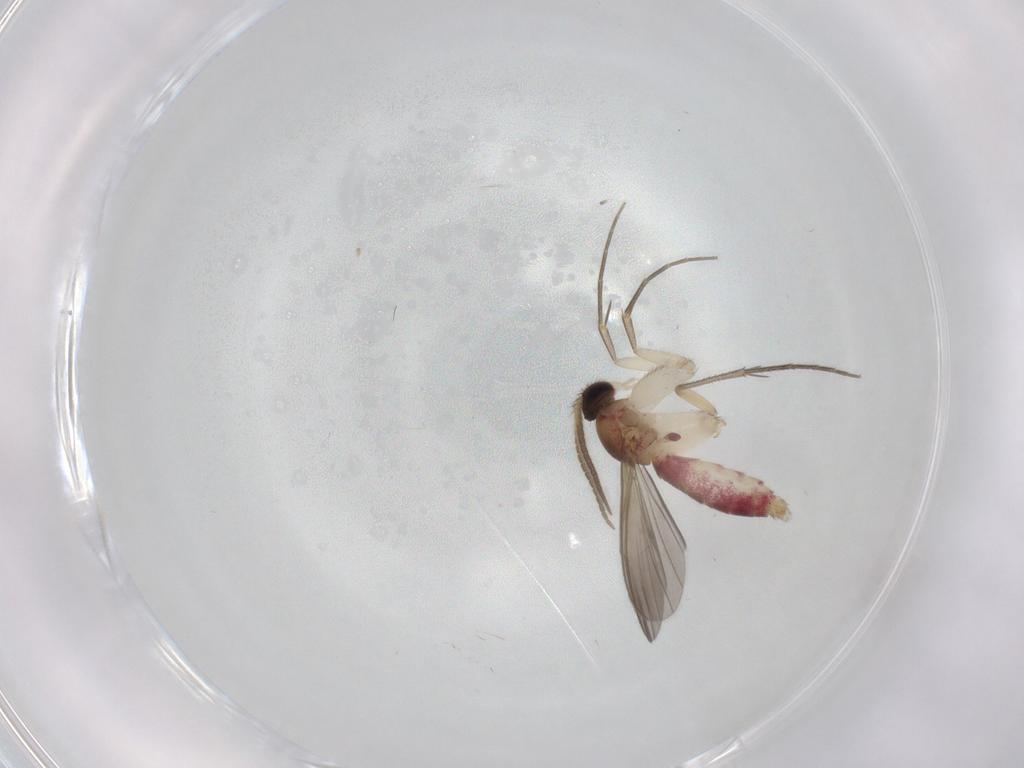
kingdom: Animalia
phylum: Arthropoda
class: Insecta
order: Diptera
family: Mycetophilidae
